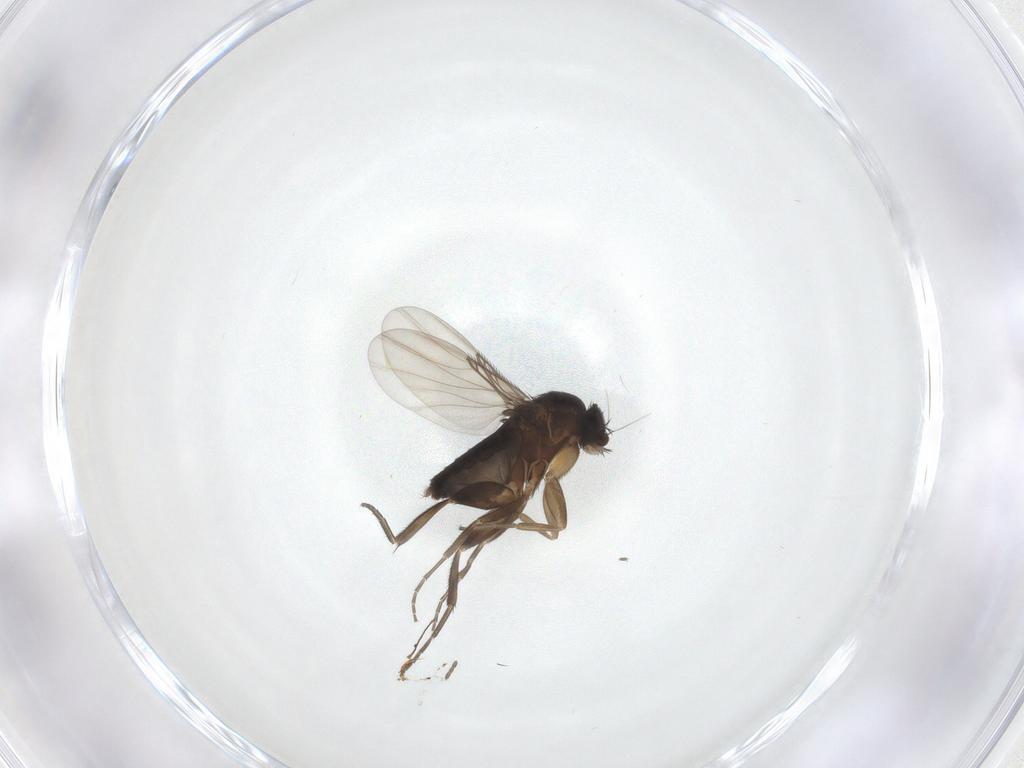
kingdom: Animalia
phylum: Arthropoda
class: Insecta
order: Diptera
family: Phoridae
